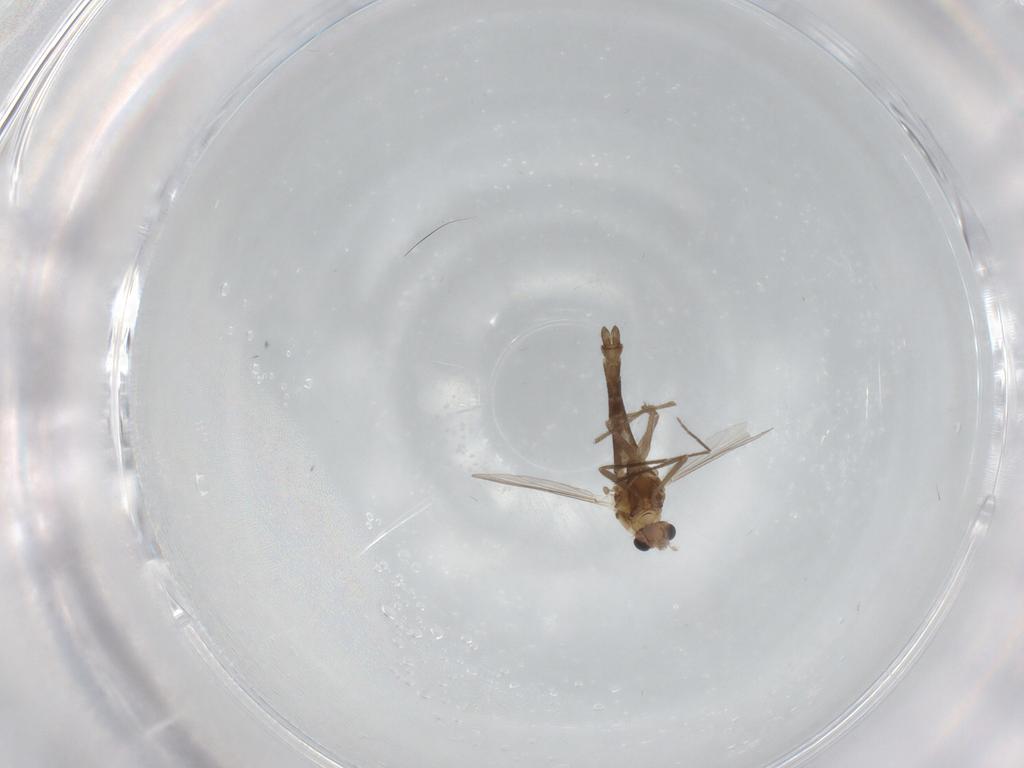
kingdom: Animalia
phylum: Arthropoda
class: Insecta
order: Diptera
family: Chironomidae
